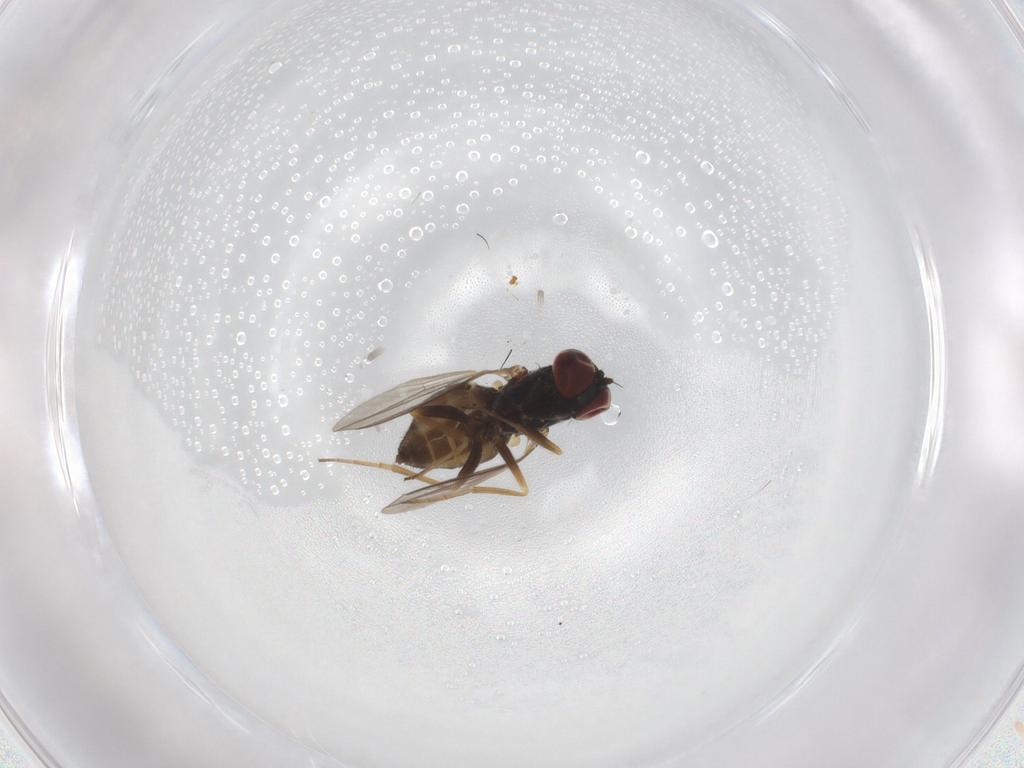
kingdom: Animalia
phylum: Arthropoda
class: Insecta
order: Diptera
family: Dolichopodidae
